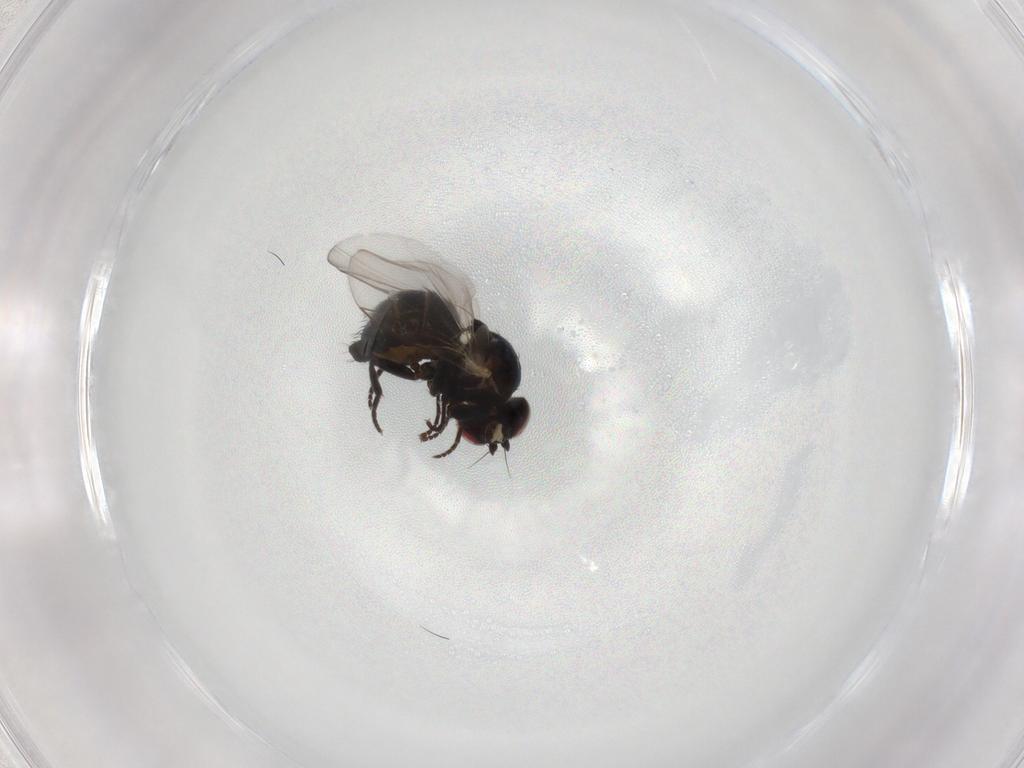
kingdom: Animalia
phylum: Arthropoda
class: Insecta
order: Diptera
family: Agromyzidae
